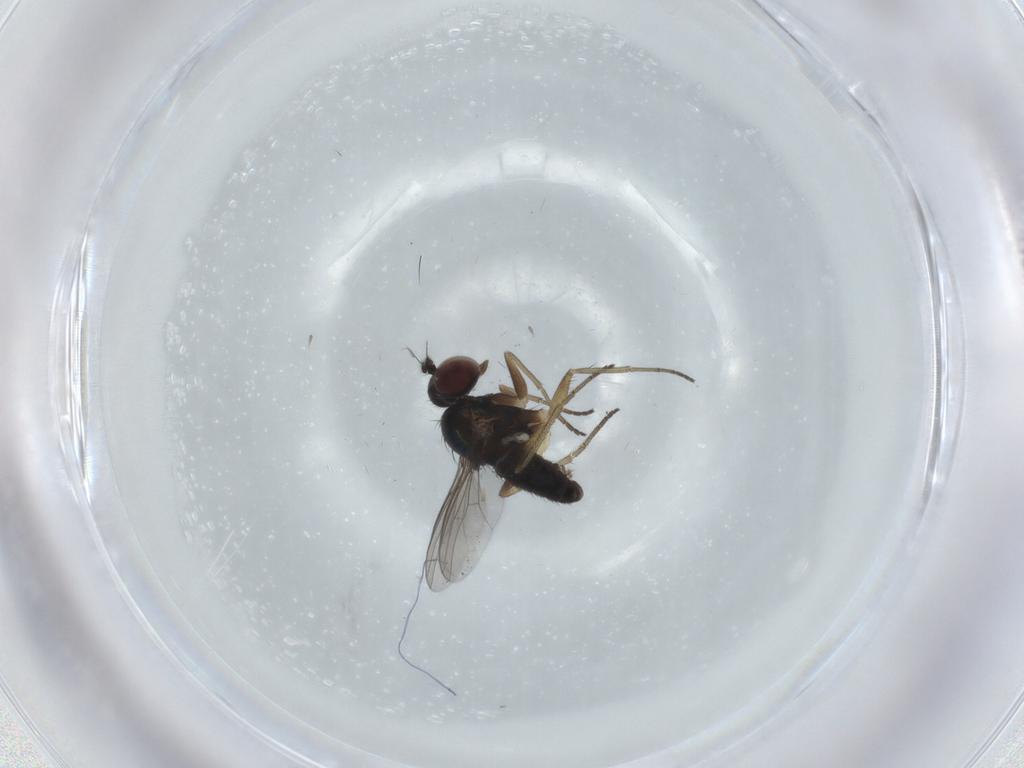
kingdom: Animalia
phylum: Arthropoda
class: Insecta
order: Diptera
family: Dolichopodidae
